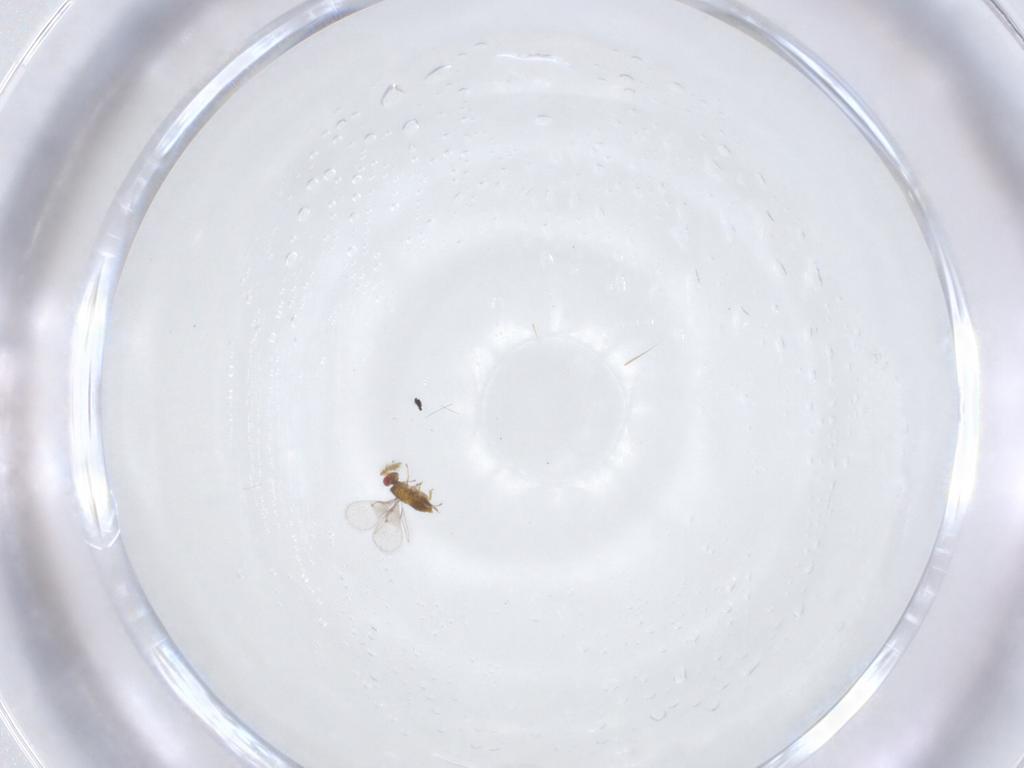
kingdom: Animalia
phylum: Arthropoda
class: Insecta
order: Hymenoptera
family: Trichogrammatidae
